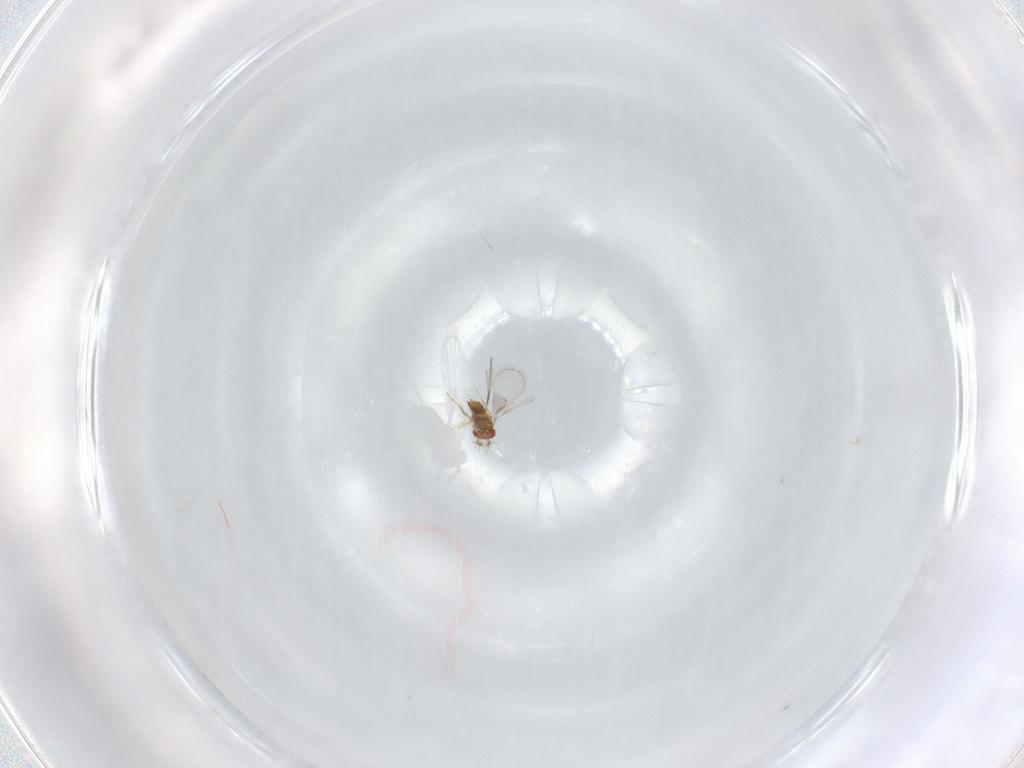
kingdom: Animalia
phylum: Arthropoda
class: Insecta
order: Hymenoptera
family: Trichogrammatidae
